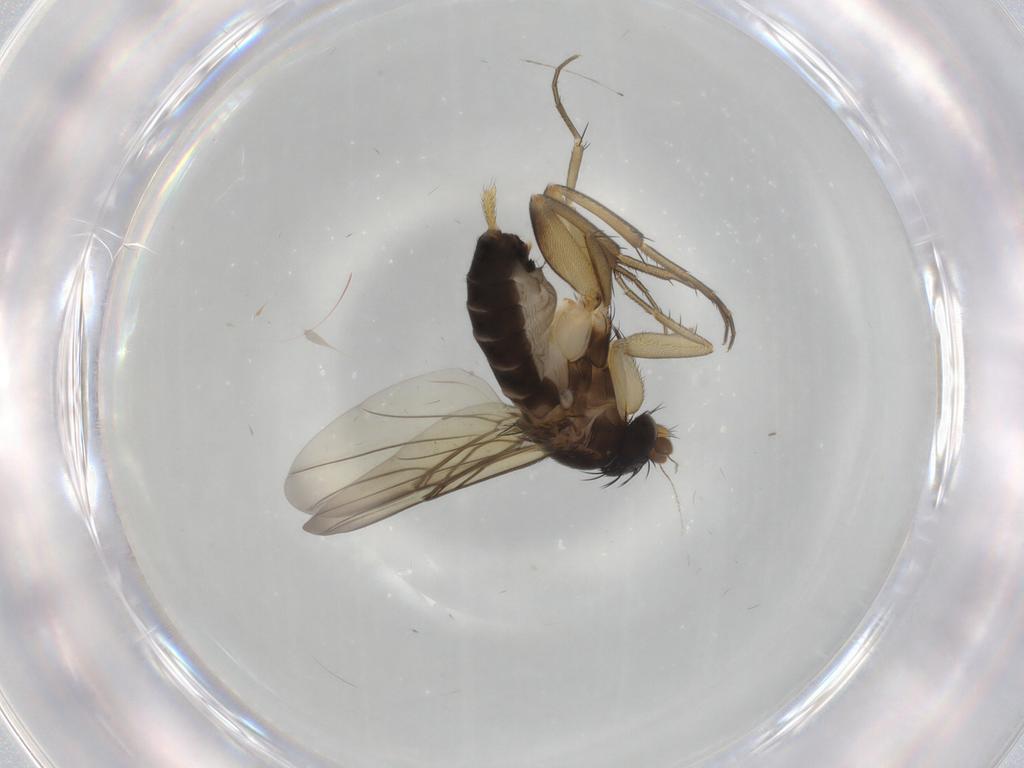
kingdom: Animalia
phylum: Arthropoda
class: Insecta
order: Diptera
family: Phoridae
